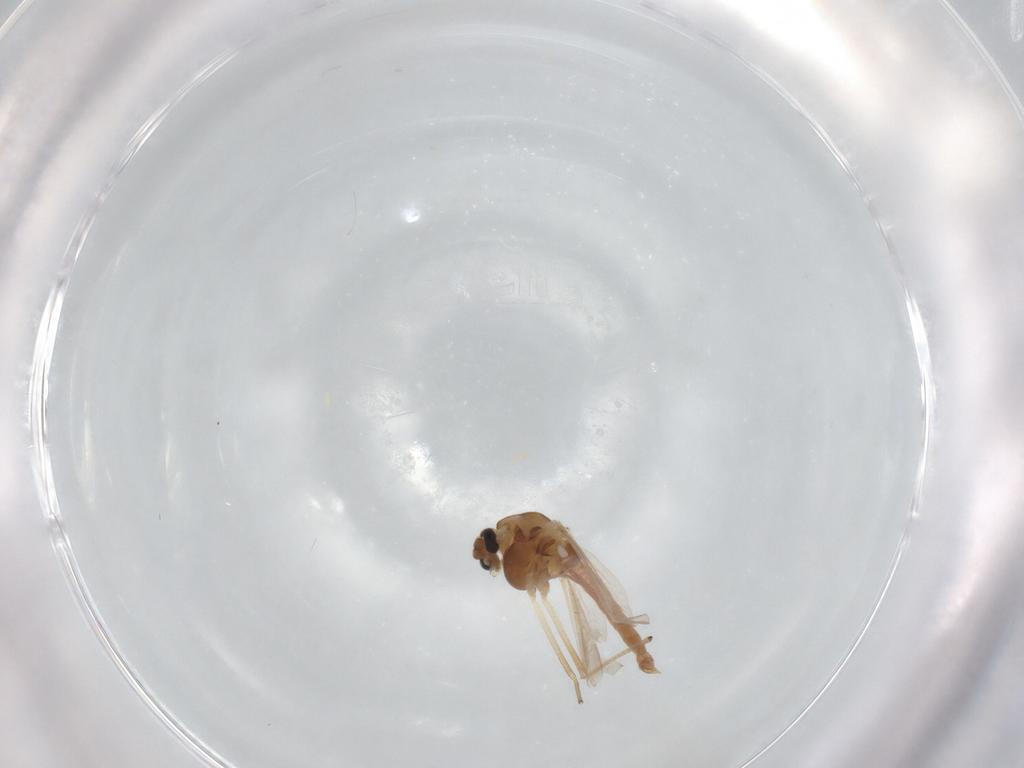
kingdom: Animalia
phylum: Arthropoda
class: Insecta
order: Diptera
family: Chironomidae
